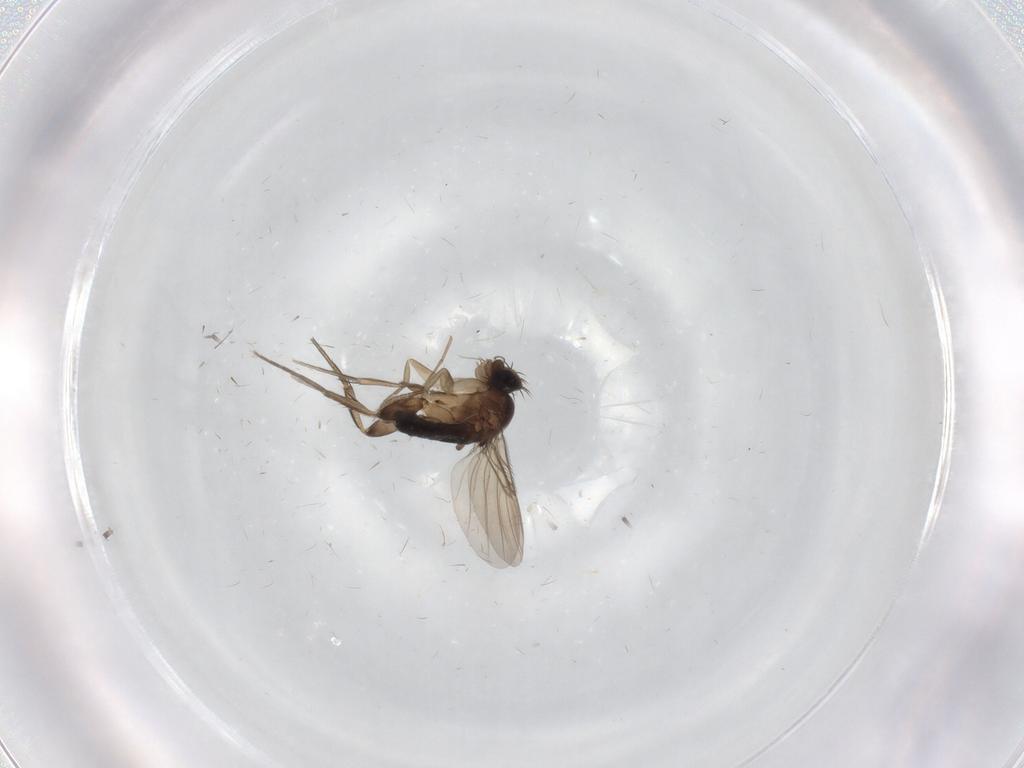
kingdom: Animalia
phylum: Arthropoda
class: Insecta
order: Diptera
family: Phoridae
